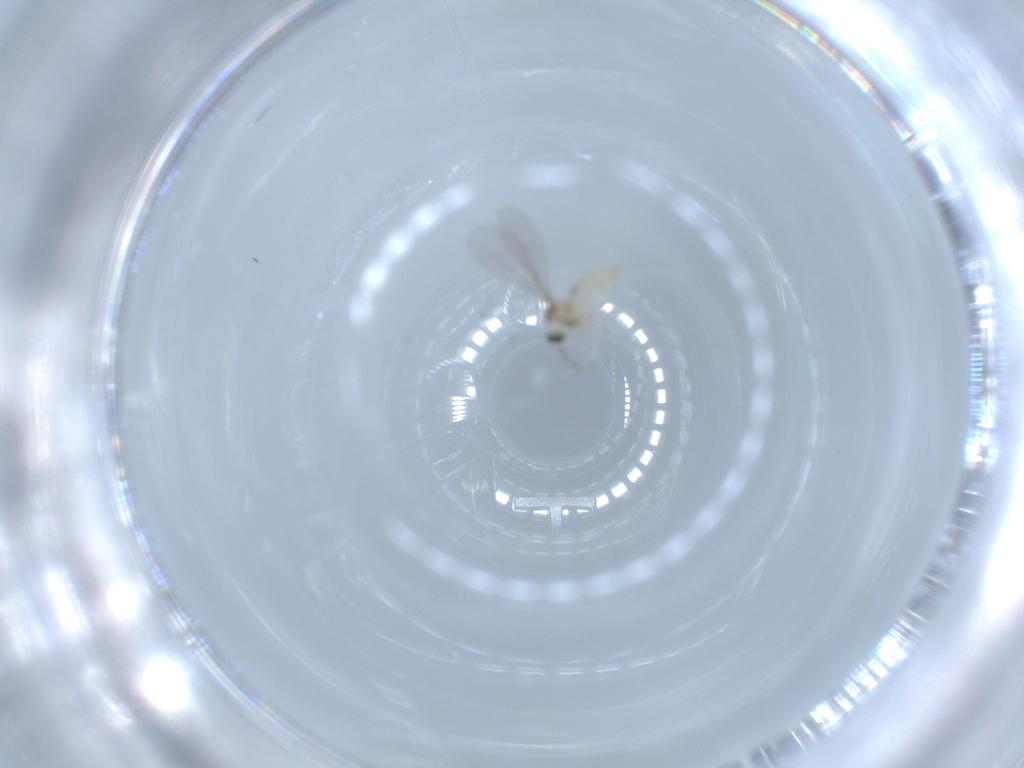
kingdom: Animalia
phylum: Arthropoda
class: Insecta
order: Diptera
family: Cecidomyiidae
